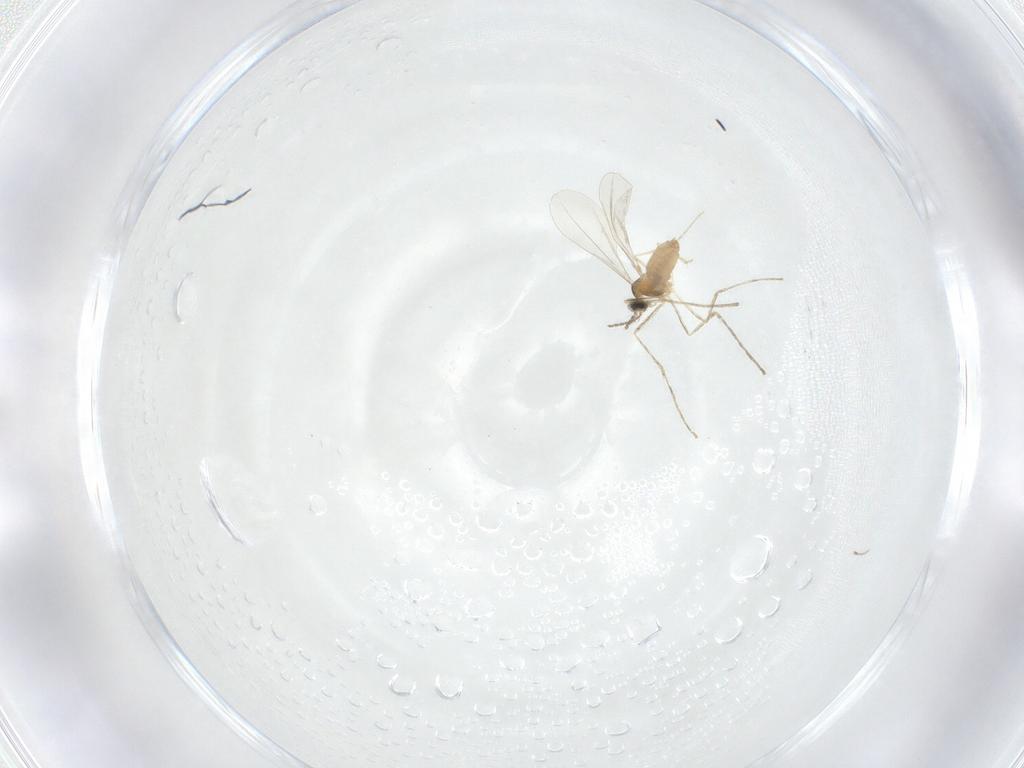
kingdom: Animalia
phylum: Arthropoda
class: Insecta
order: Diptera
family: Cecidomyiidae
